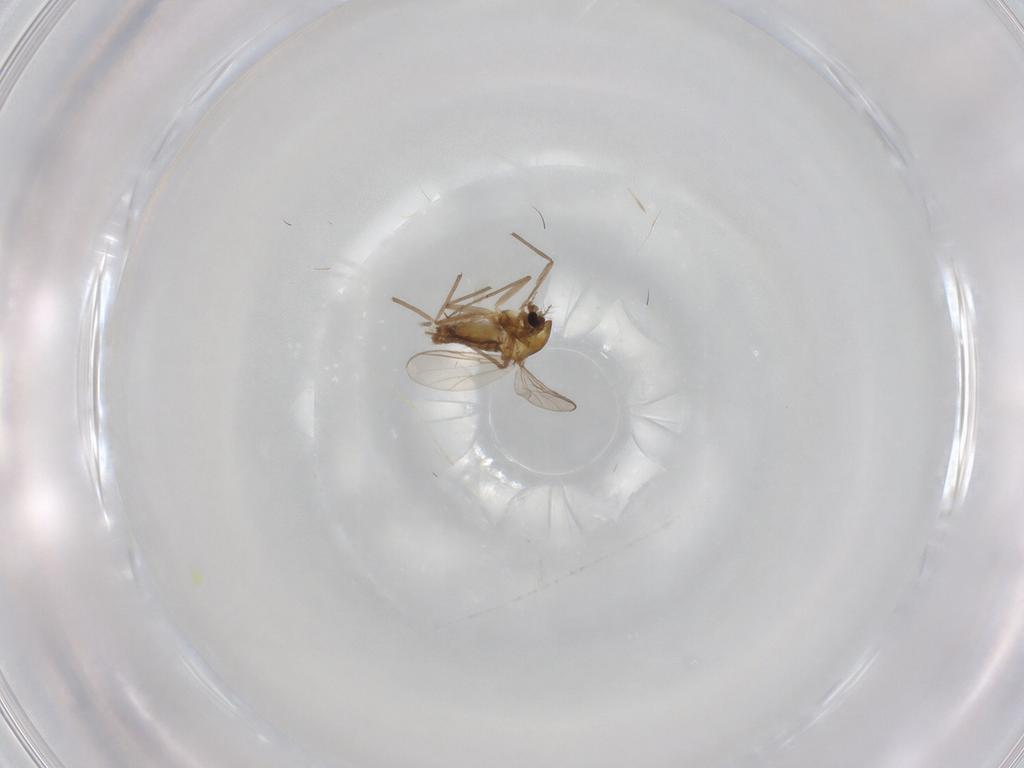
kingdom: Animalia
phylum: Arthropoda
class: Insecta
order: Diptera
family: Chironomidae
